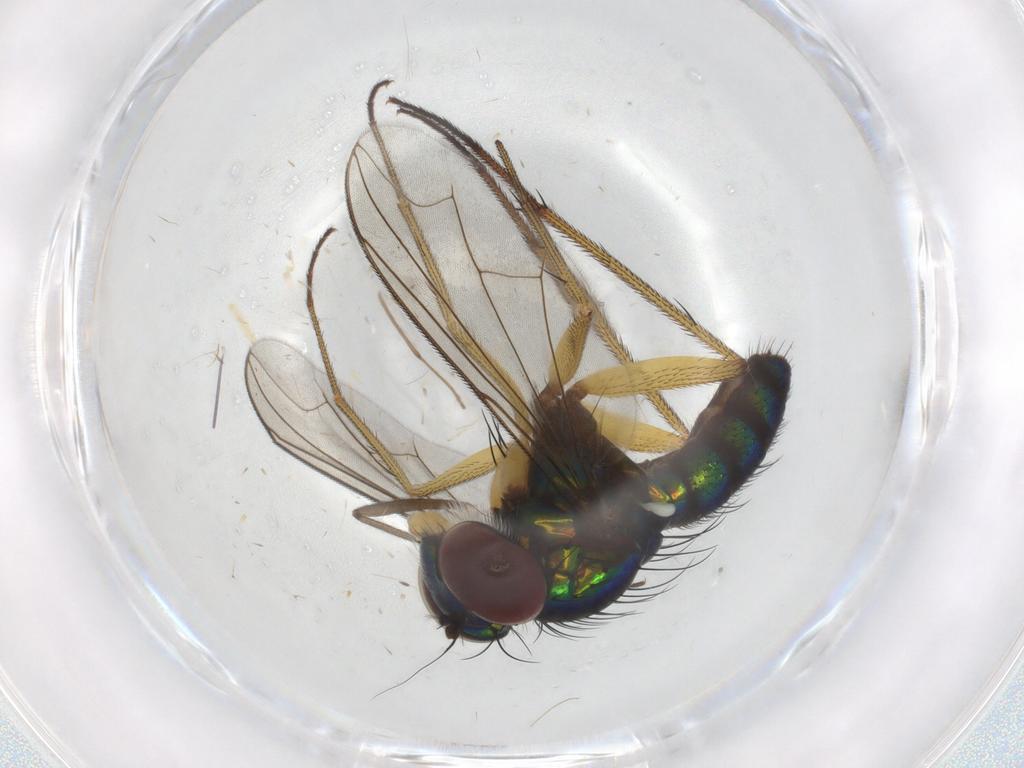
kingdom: Animalia
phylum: Arthropoda
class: Insecta
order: Diptera
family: Dolichopodidae
